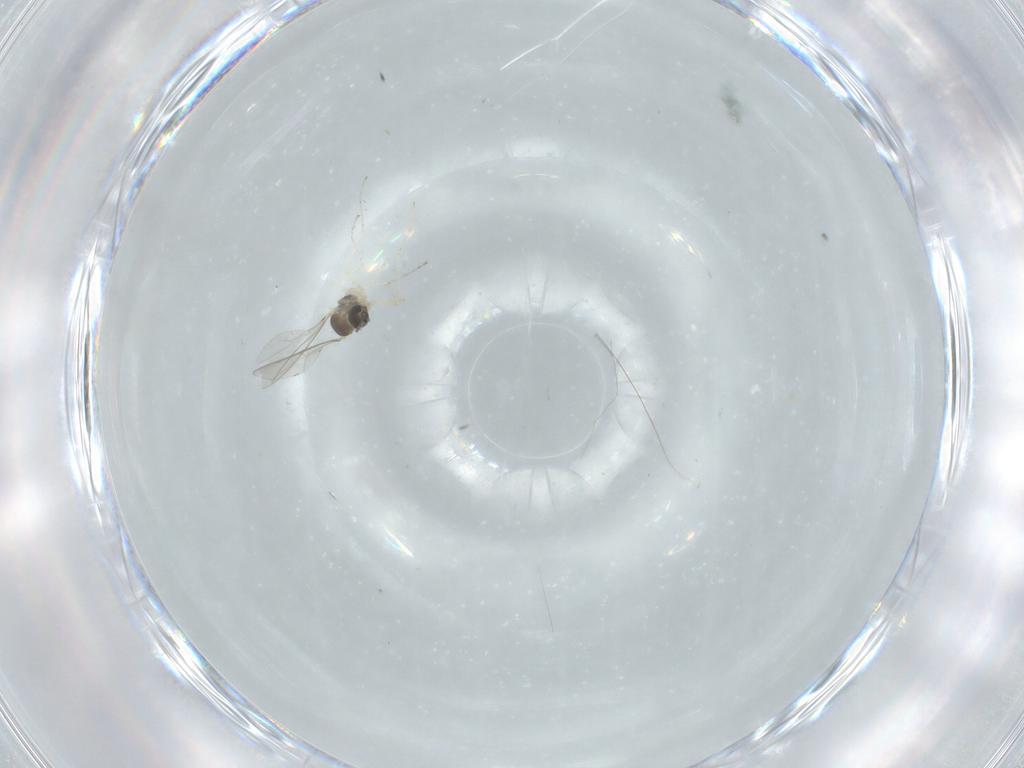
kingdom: Animalia
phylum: Arthropoda
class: Insecta
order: Diptera
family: Cecidomyiidae
